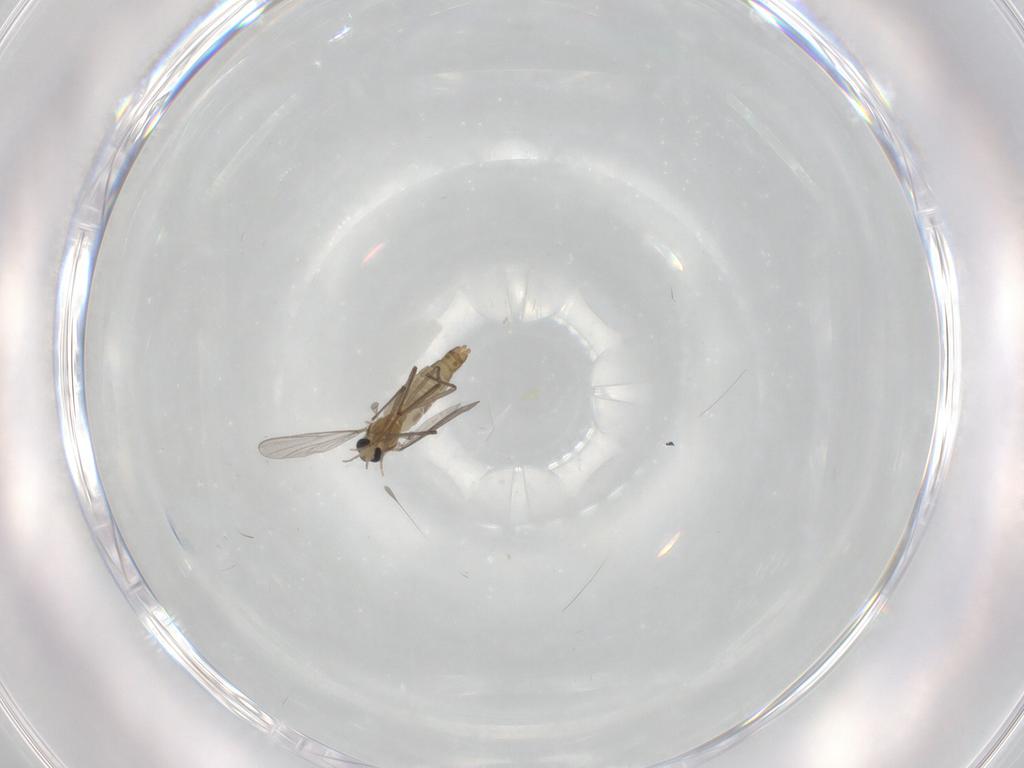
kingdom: Animalia
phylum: Arthropoda
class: Insecta
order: Diptera
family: Chironomidae
